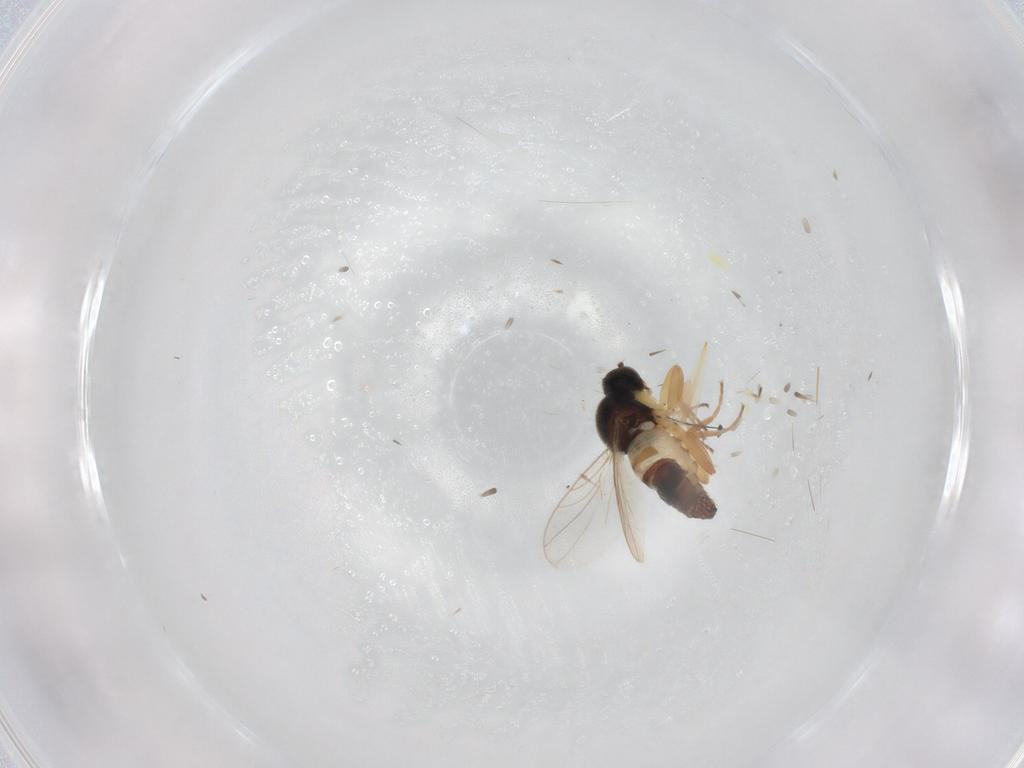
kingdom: Animalia
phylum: Arthropoda
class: Insecta
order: Diptera
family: Hybotidae
